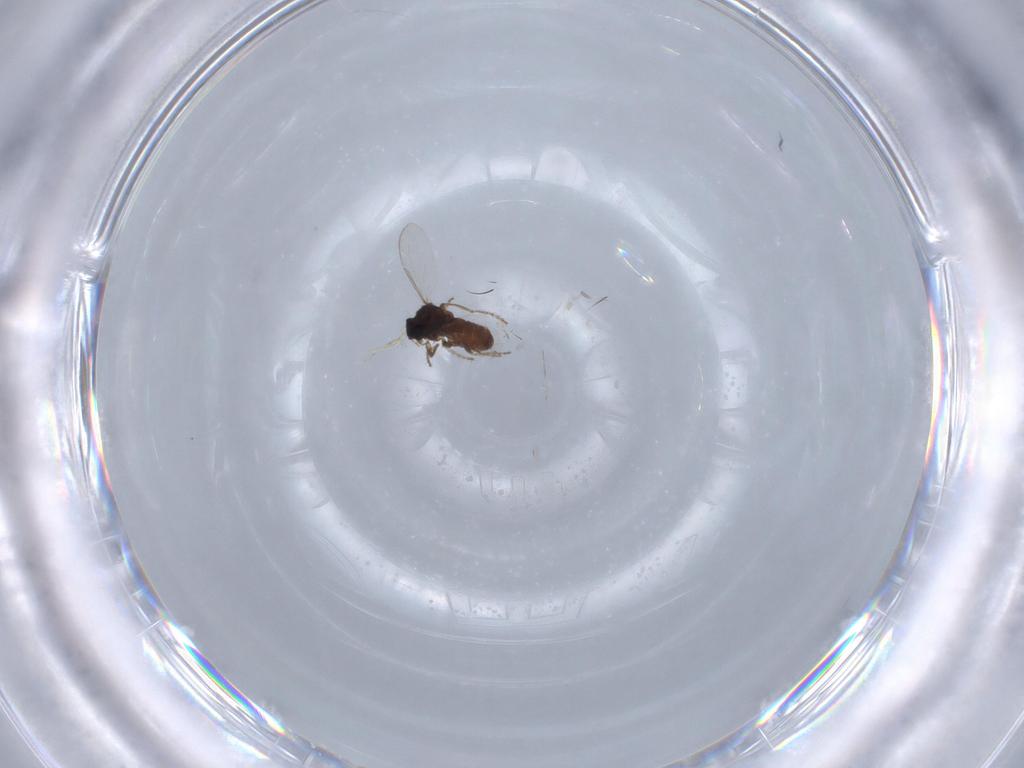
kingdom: Animalia
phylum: Arthropoda
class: Insecta
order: Diptera
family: Ceratopogonidae
